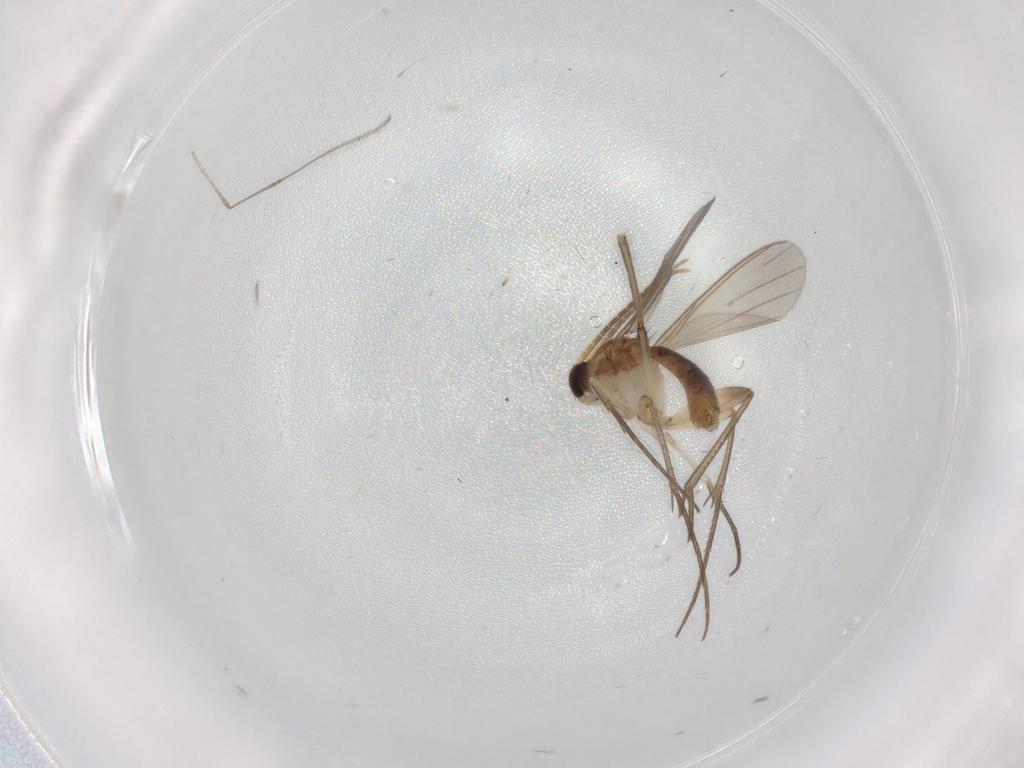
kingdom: Animalia
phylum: Arthropoda
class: Insecta
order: Diptera
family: Mycetophilidae
